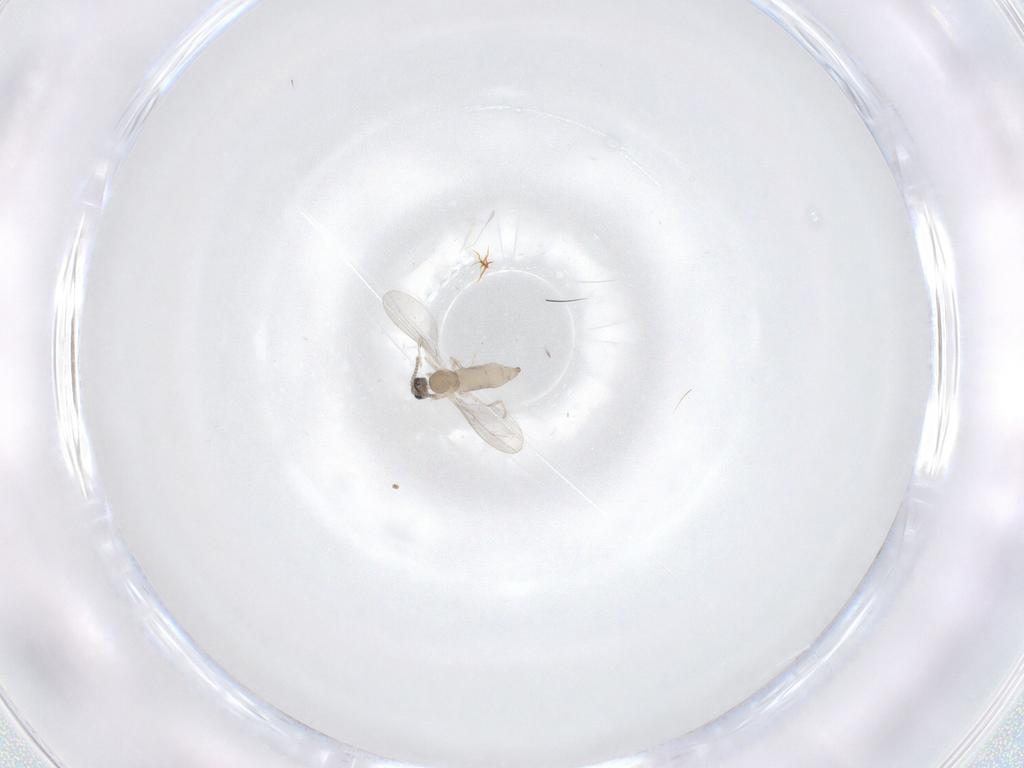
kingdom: Animalia
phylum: Arthropoda
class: Insecta
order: Diptera
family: Cecidomyiidae
